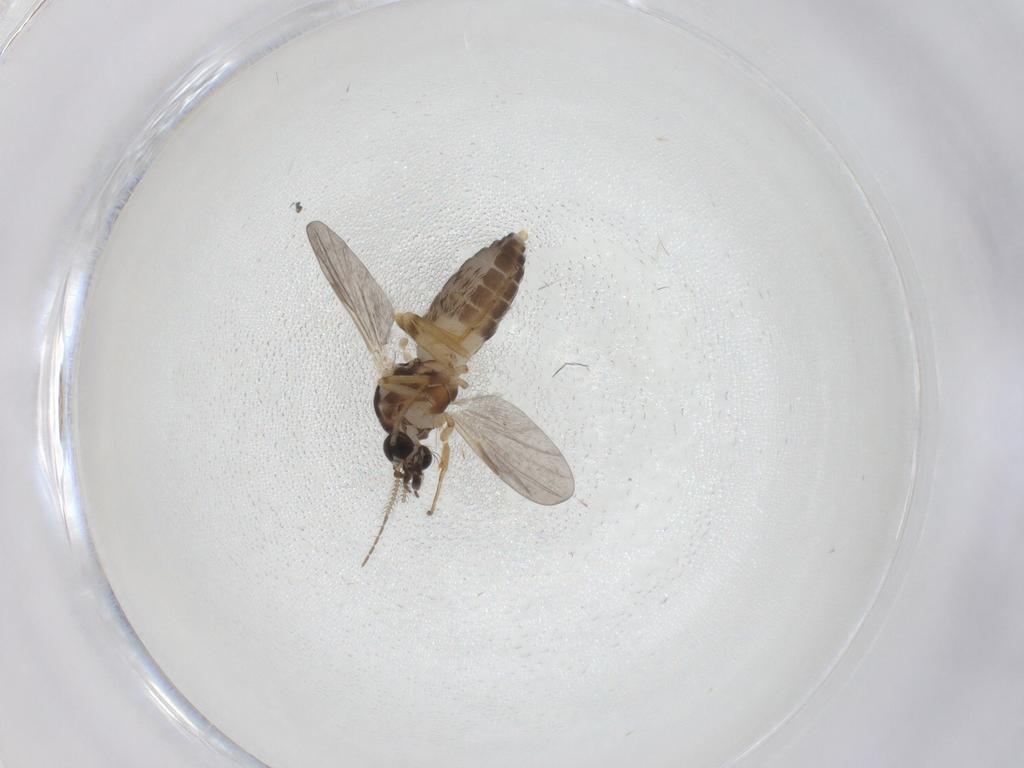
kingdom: Animalia
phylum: Arthropoda
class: Insecta
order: Diptera
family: Ceratopogonidae
